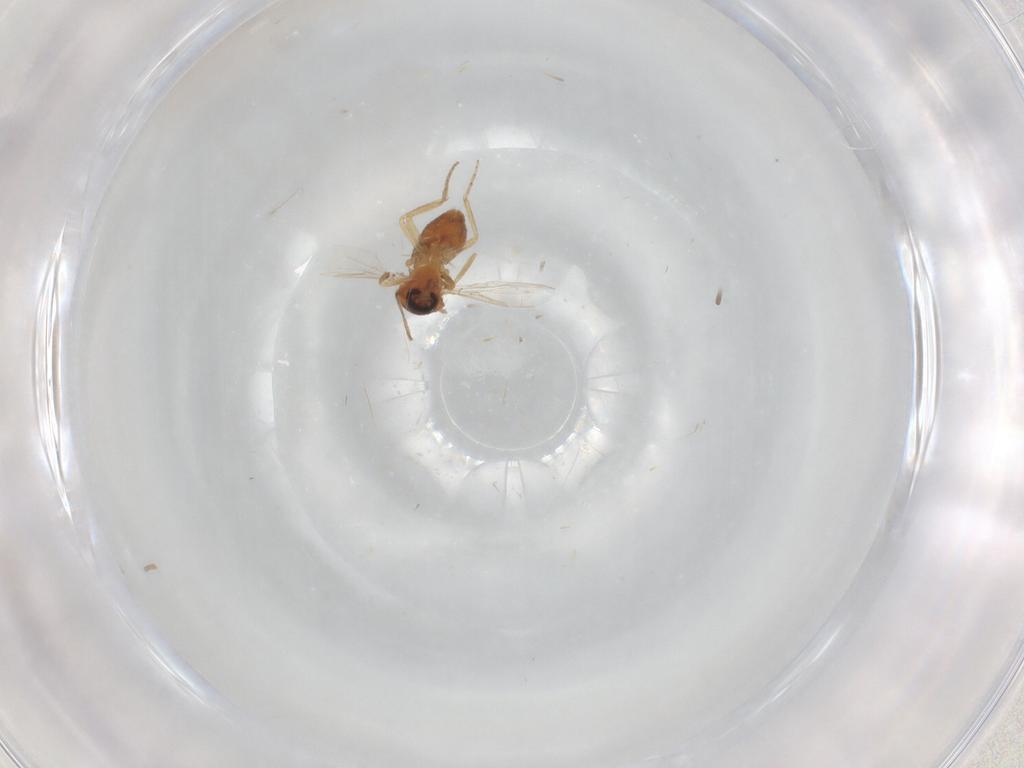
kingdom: Animalia
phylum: Arthropoda
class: Insecta
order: Diptera
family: Ceratopogonidae
